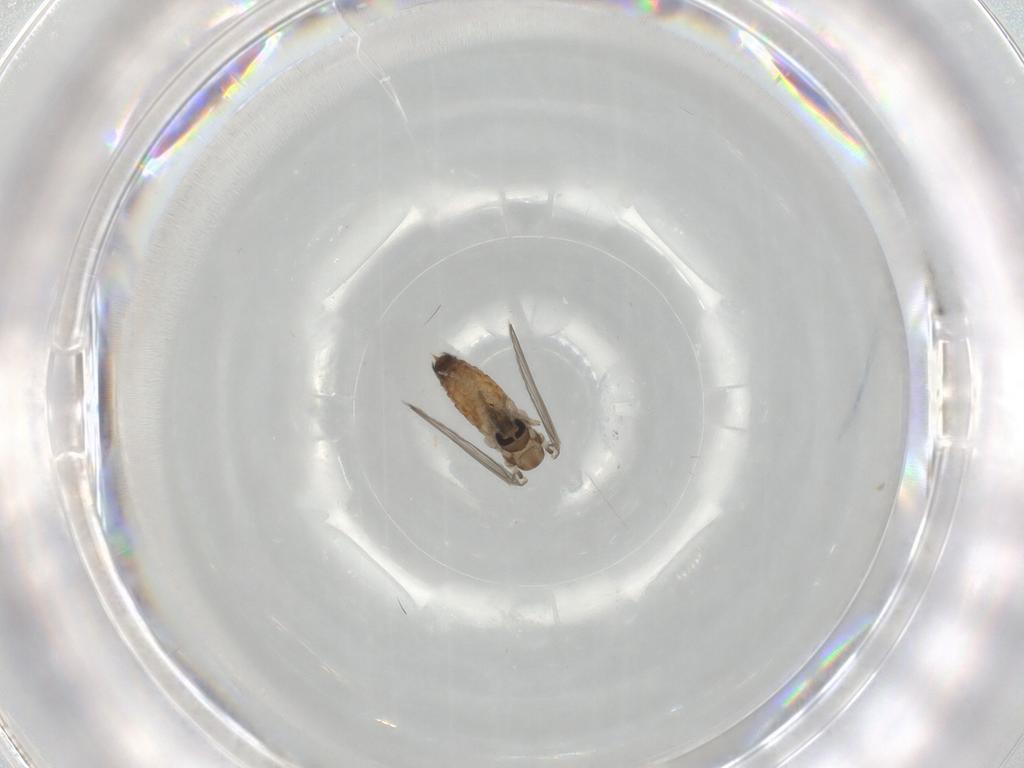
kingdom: Animalia
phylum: Arthropoda
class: Insecta
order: Diptera
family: Psychodidae
